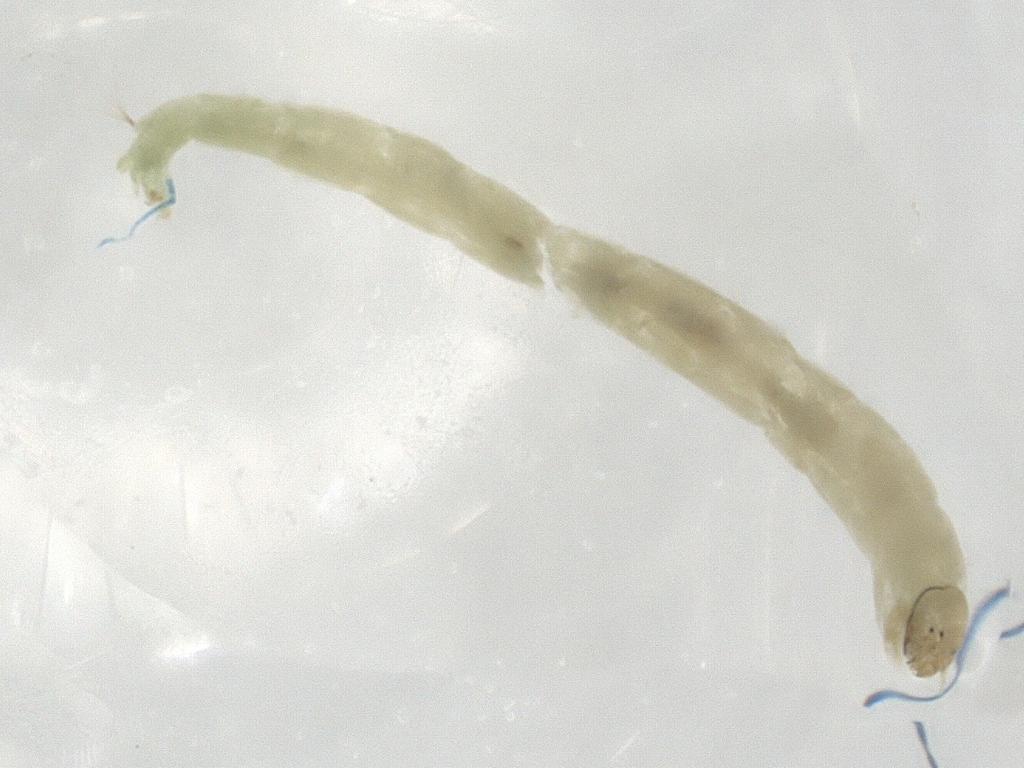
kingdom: Animalia
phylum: Arthropoda
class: Insecta
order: Diptera
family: Chironomidae
